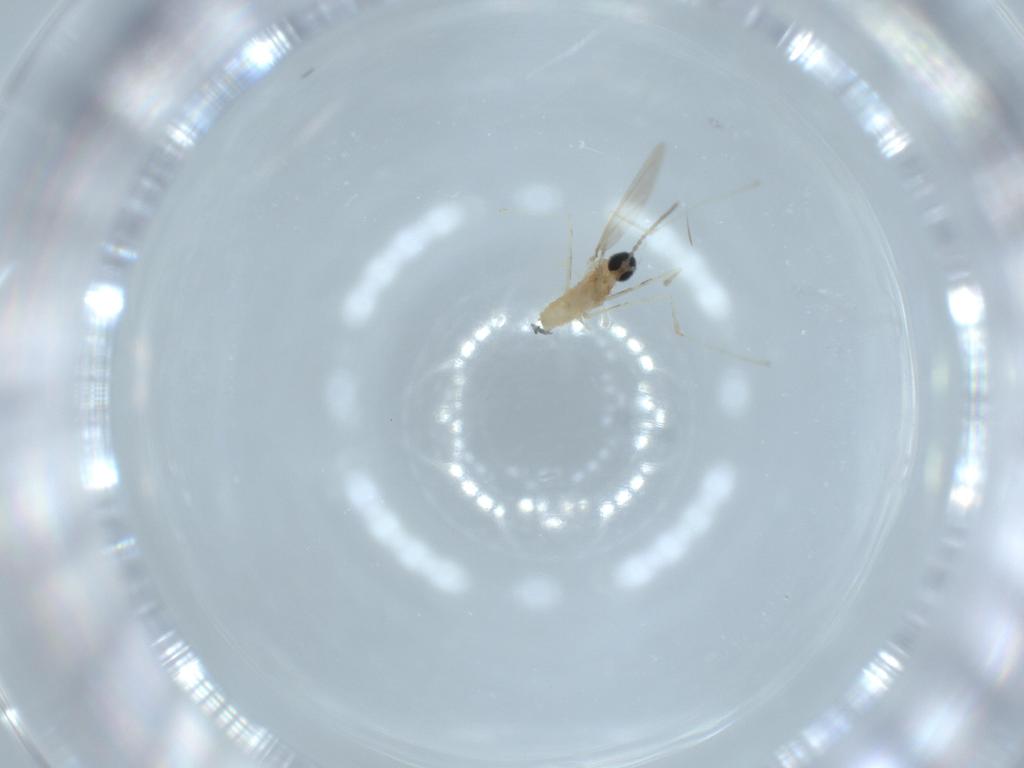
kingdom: Animalia
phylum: Arthropoda
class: Insecta
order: Diptera
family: Cecidomyiidae
